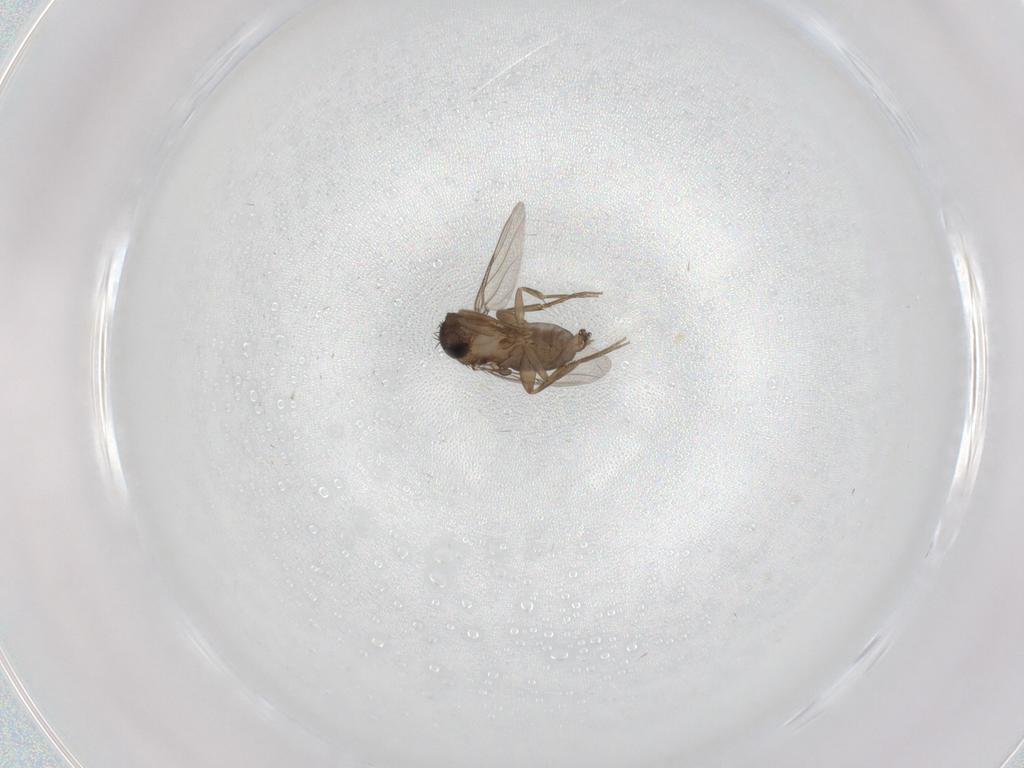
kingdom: Animalia
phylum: Arthropoda
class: Insecta
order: Diptera
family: Phoridae
